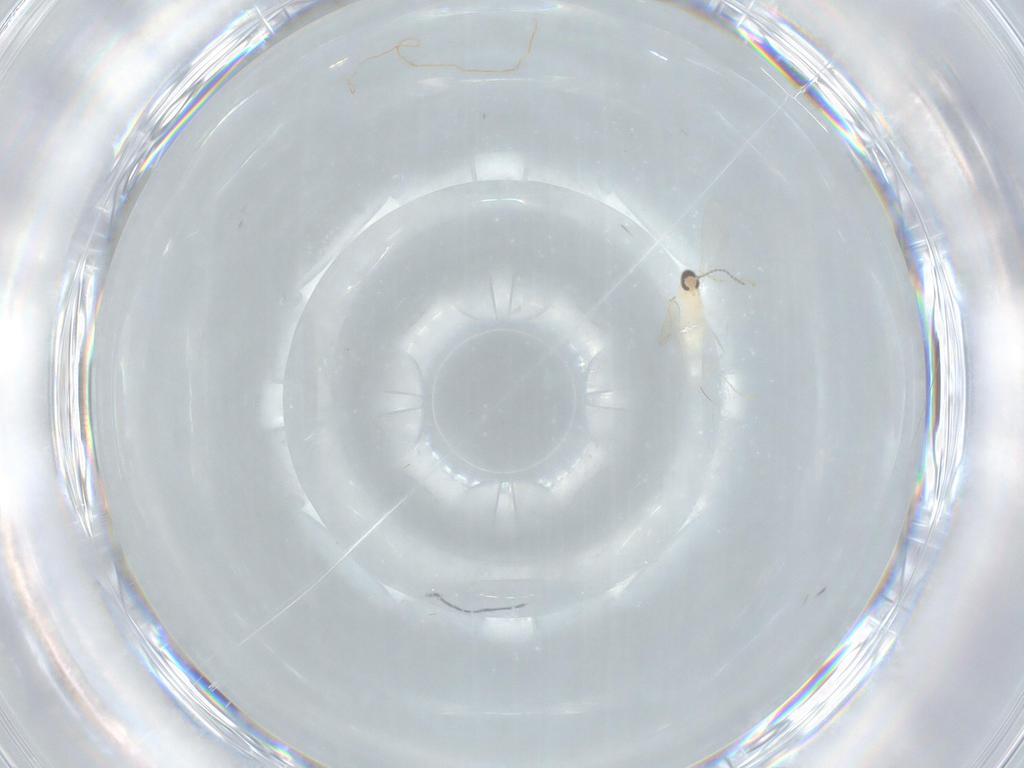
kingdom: Animalia
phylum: Arthropoda
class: Insecta
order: Diptera
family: Cecidomyiidae
